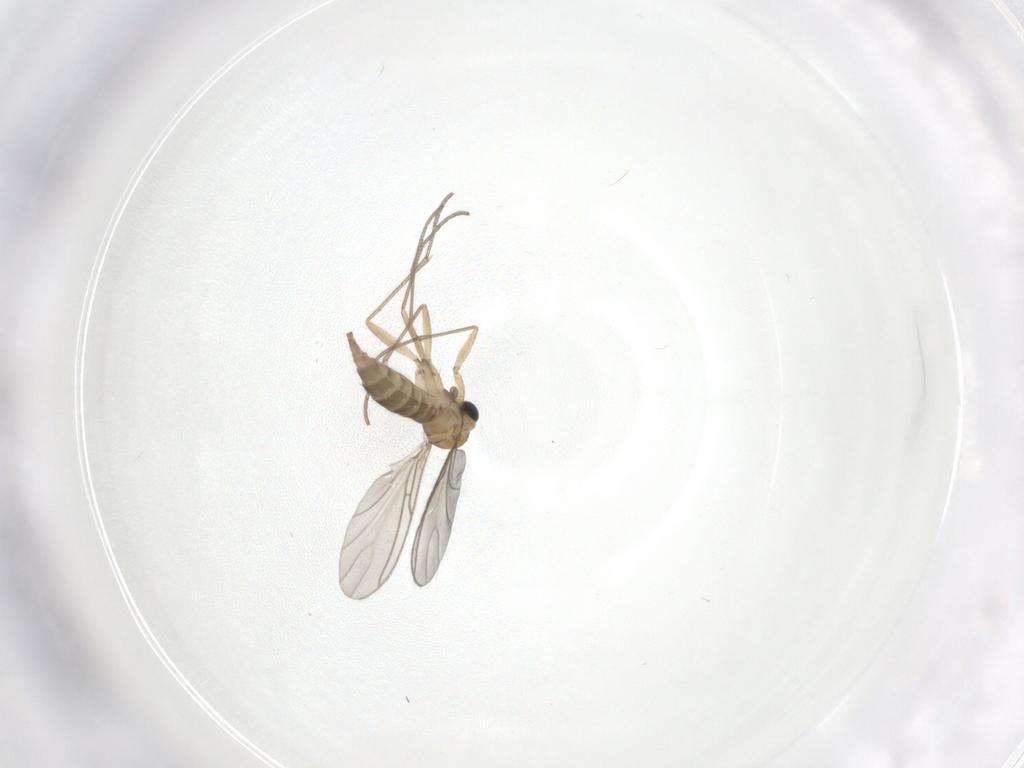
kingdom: Animalia
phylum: Arthropoda
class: Insecta
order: Diptera
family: Sciaridae
